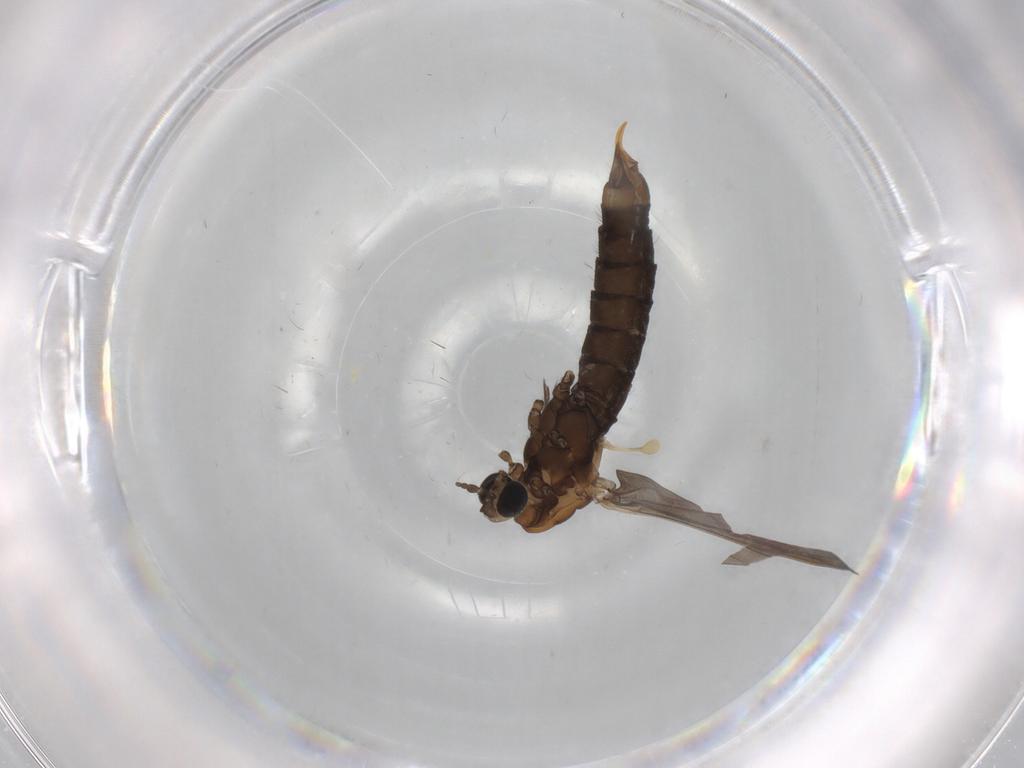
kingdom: Animalia
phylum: Arthropoda
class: Insecta
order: Diptera
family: Limoniidae
